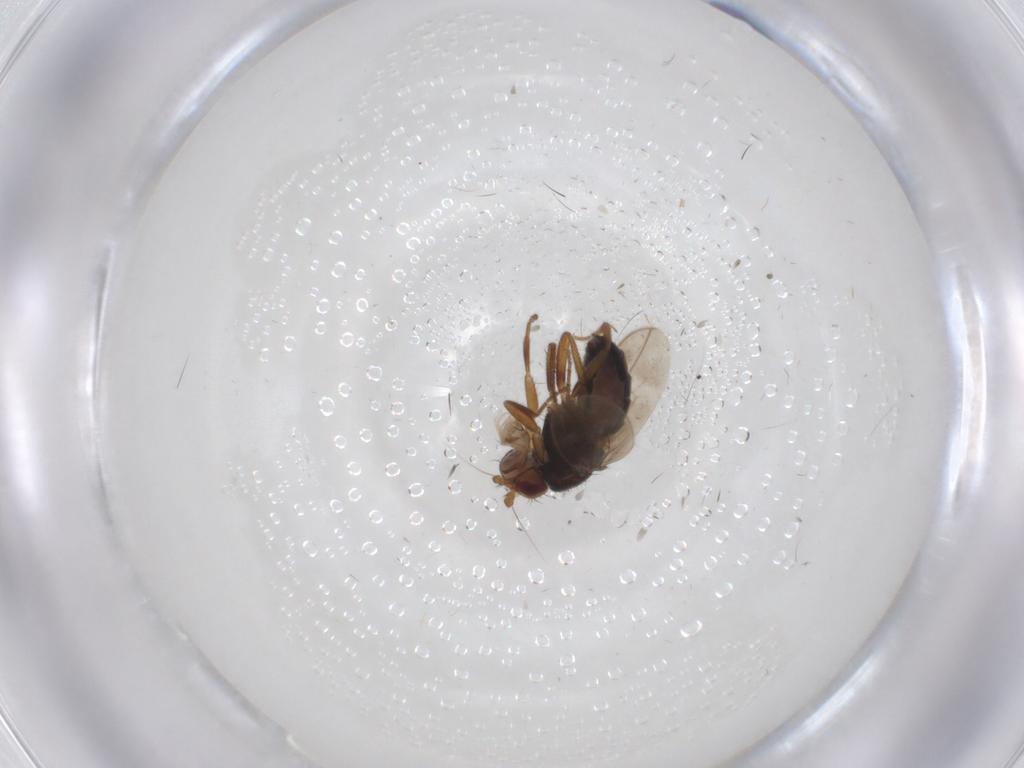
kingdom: Animalia
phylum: Arthropoda
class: Insecta
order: Diptera
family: Sphaeroceridae
